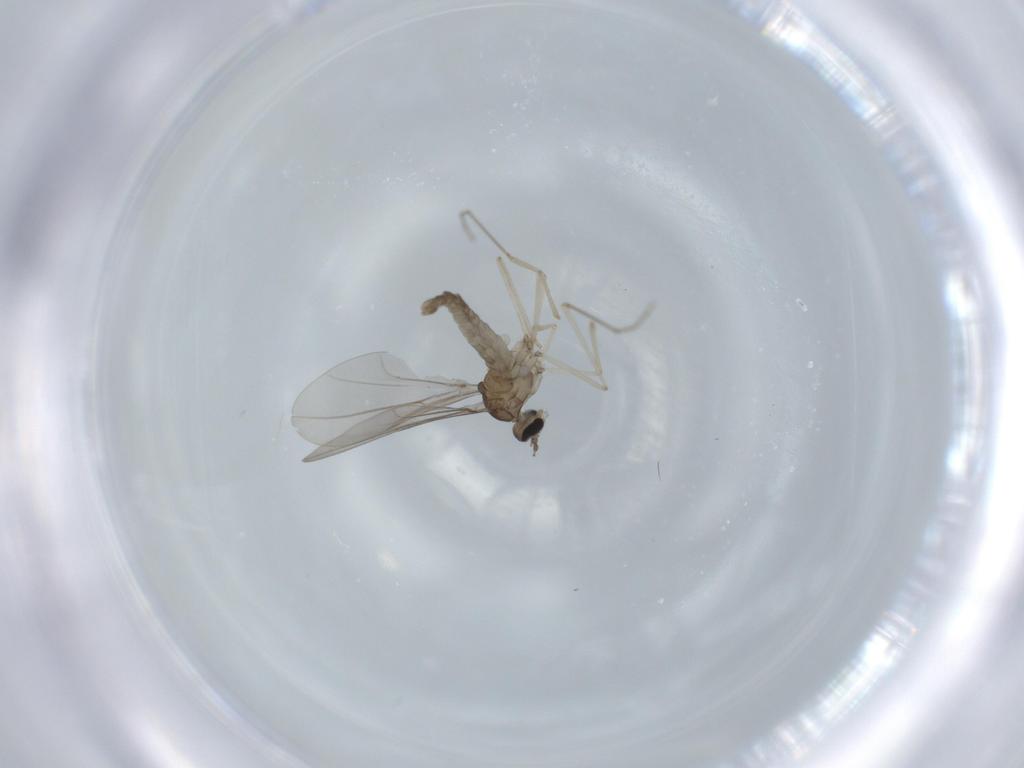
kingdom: Animalia
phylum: Arthropoda
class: Insecta
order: Diptera
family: Cecidomyiidae
